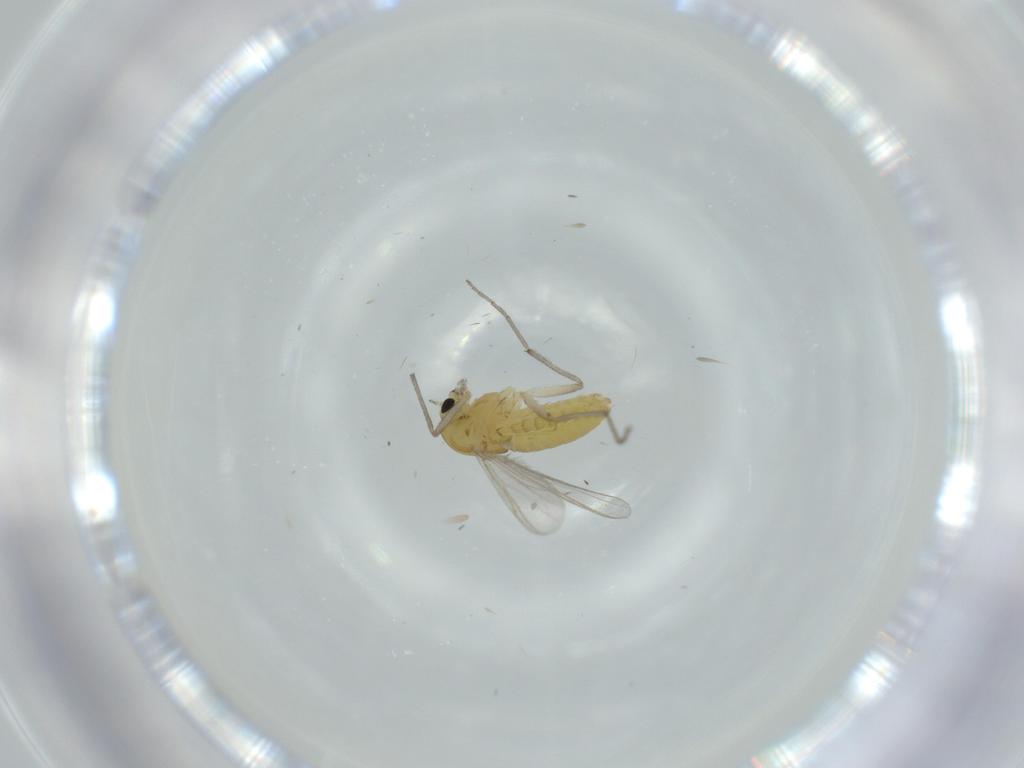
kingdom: Animalia
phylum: Arthropoda
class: Insecta
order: Diptera
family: Chironomidae
